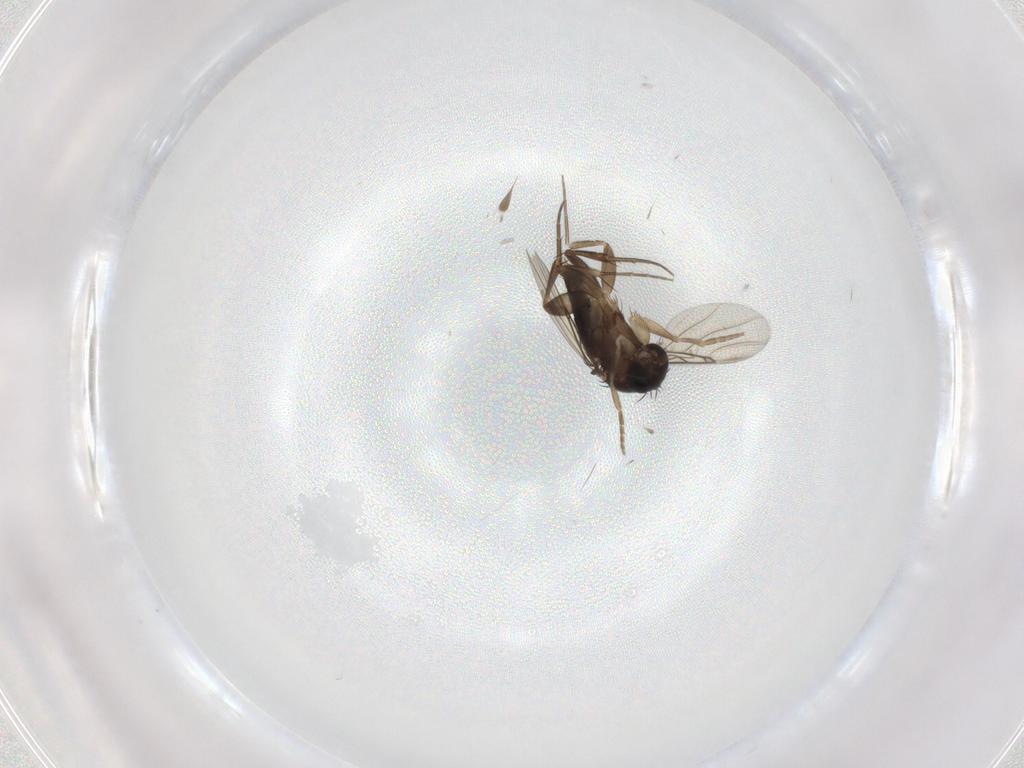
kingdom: Animalia
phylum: Arthropoda
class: Insecta
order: Diptera
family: Phoridae
